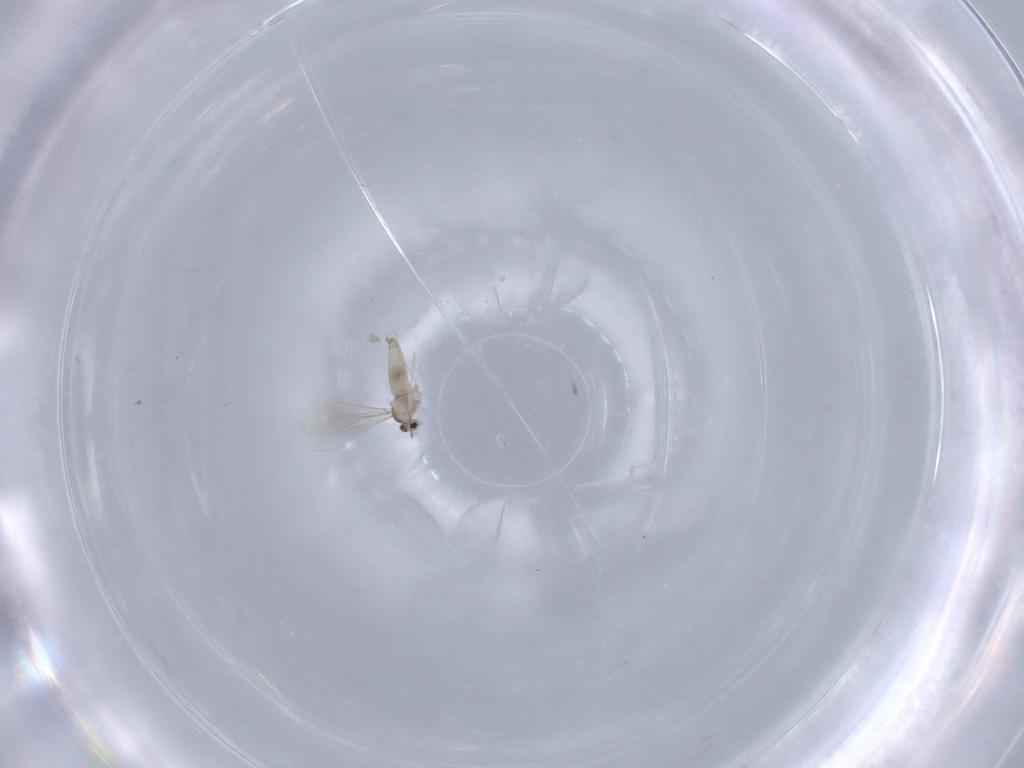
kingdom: Animalia
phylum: Arthropoda
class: Insecta
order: Diptera
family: Cecidomyiidae
